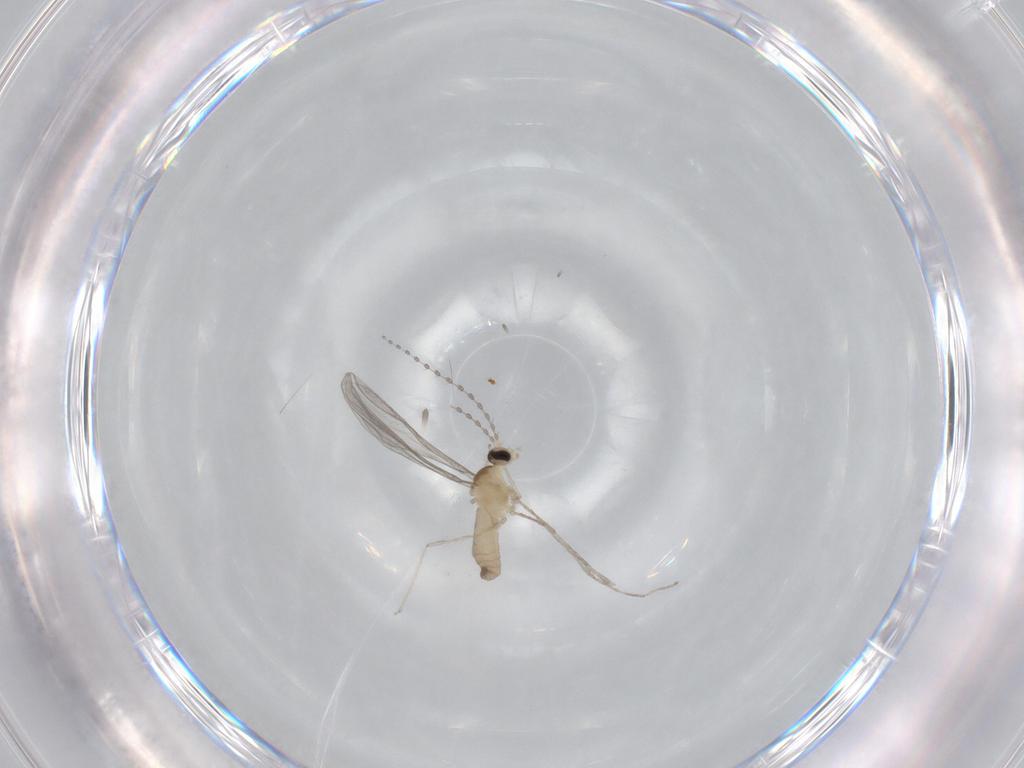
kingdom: Animalia
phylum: Arthropoda
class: Insecta
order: Diptera
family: Cecidomyiidae
